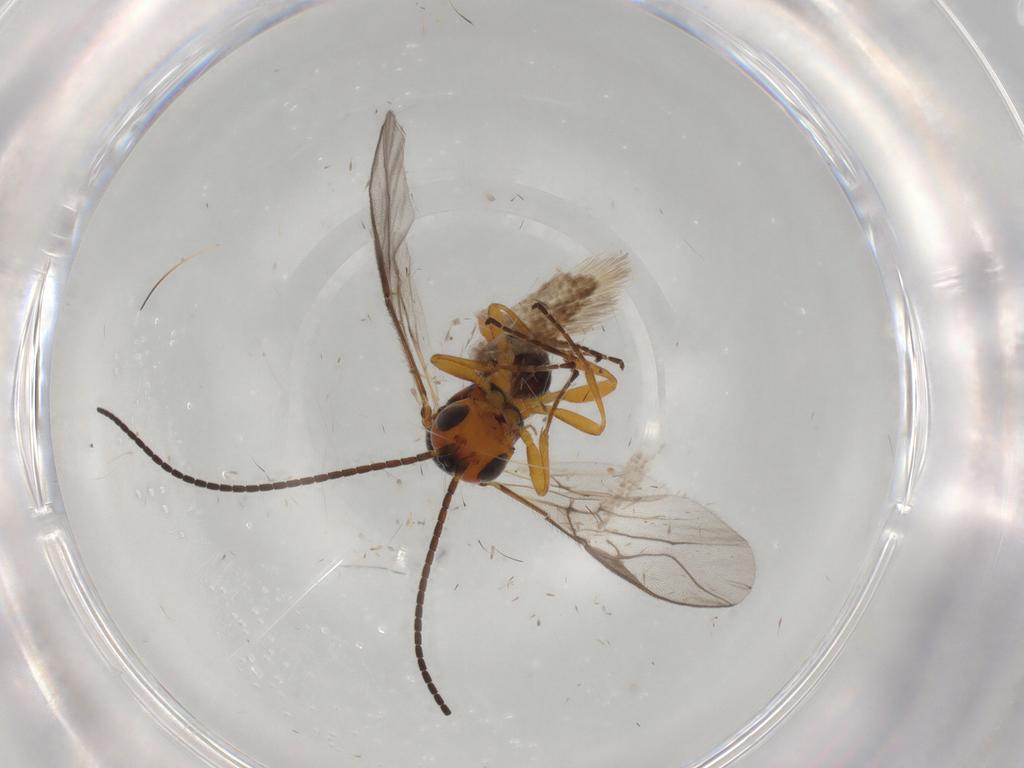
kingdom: Animalia
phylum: Arthropoda
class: Insecta
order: Hymenoptera
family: Braconidae
